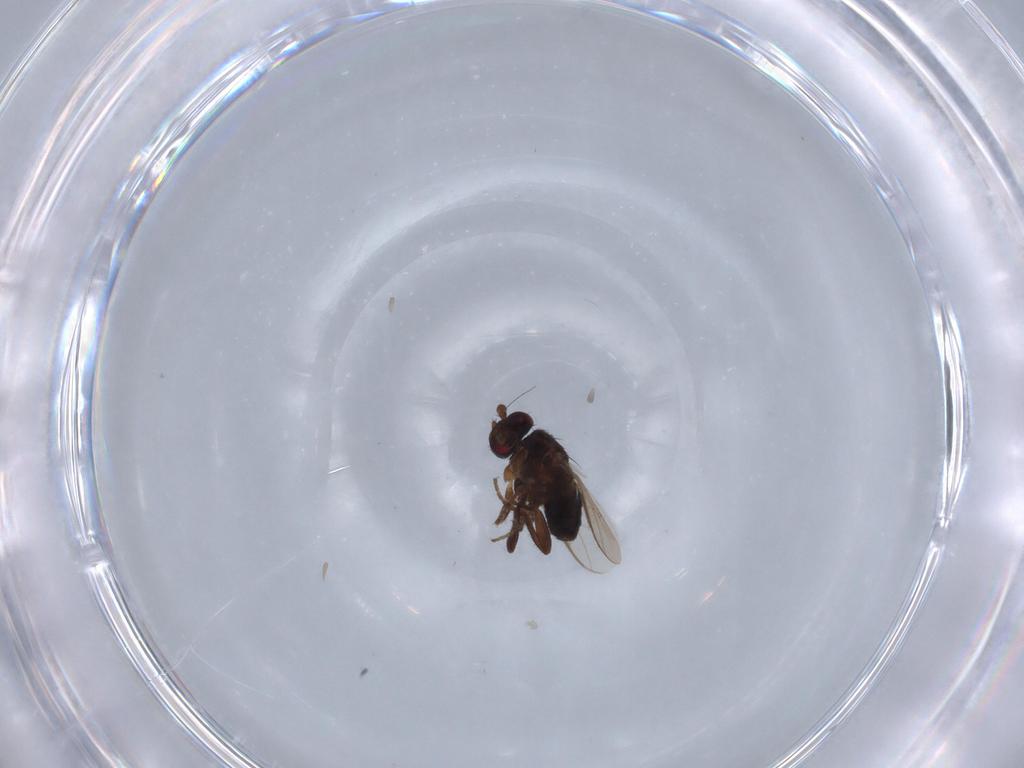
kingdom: Animalia
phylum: Arthropoda
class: Insecta
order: Diptera
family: Sphaeroceridae
